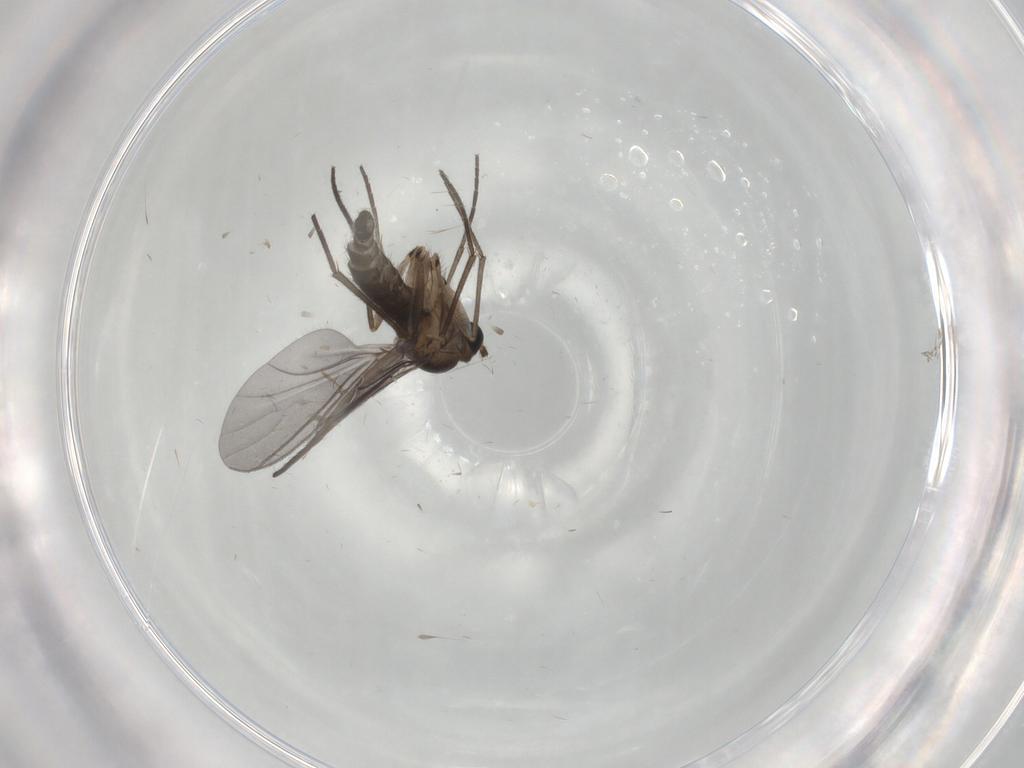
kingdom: Animalia
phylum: Arthropoda
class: Insecta
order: Diptera
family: Sciaridae
